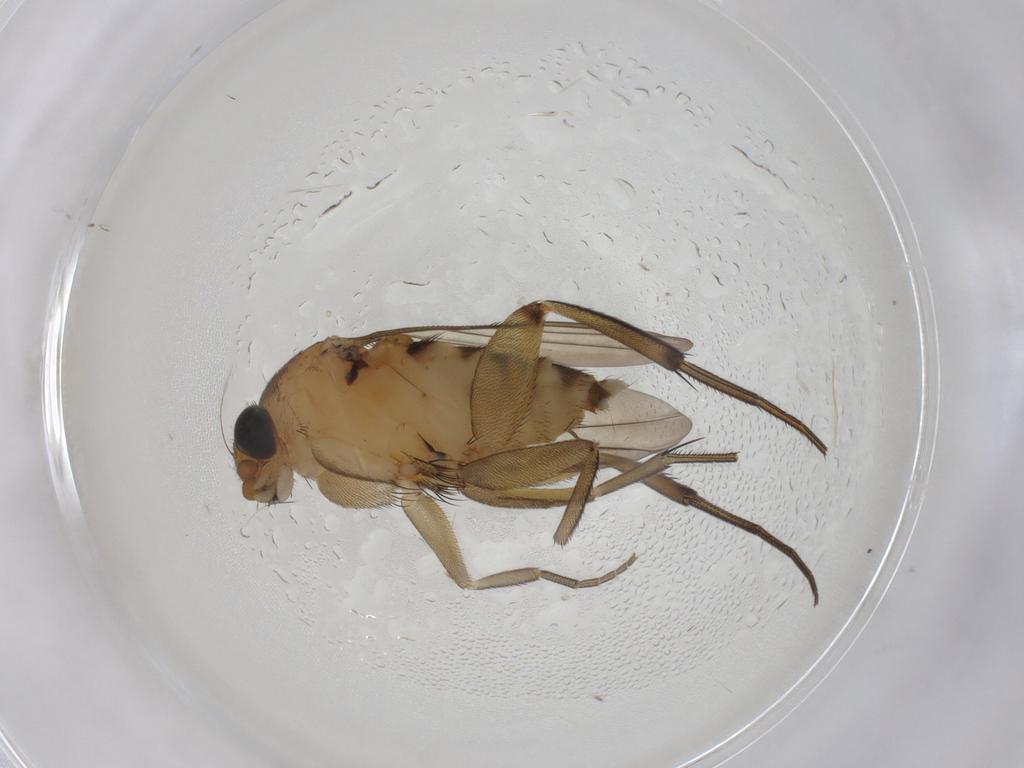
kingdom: Animalia
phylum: Arthropoda
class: Insecta
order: Diptera
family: Phoridae
